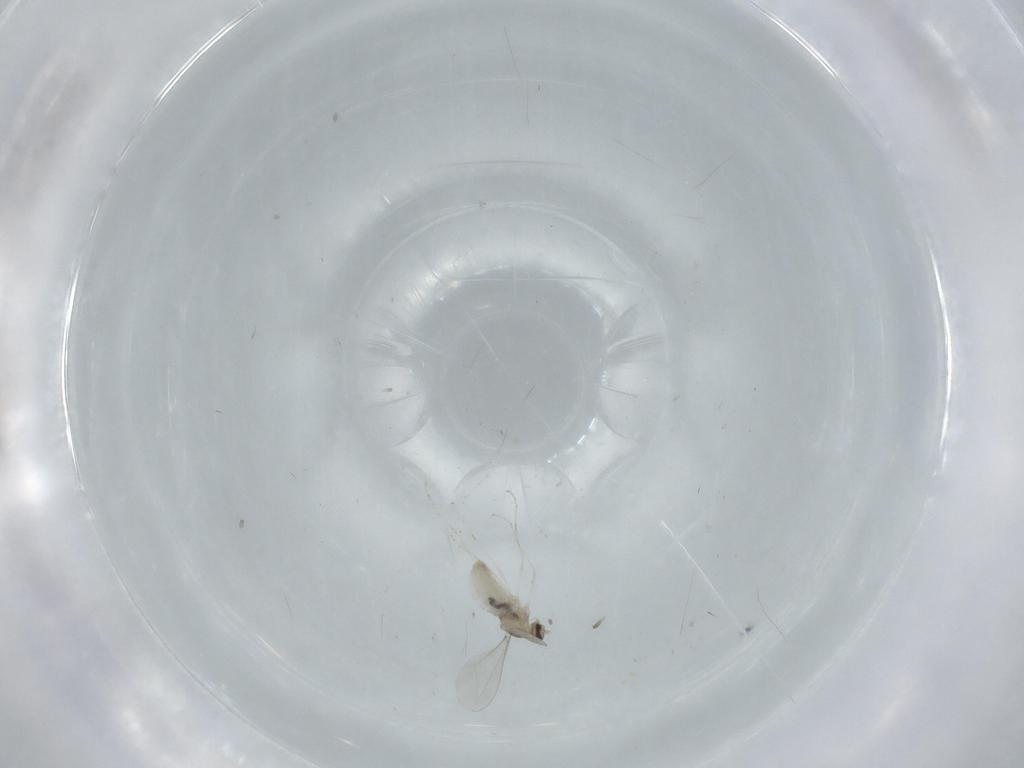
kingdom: Animalia
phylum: Arthropoda
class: Insecta
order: Diptera
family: Cecidomyiidae
